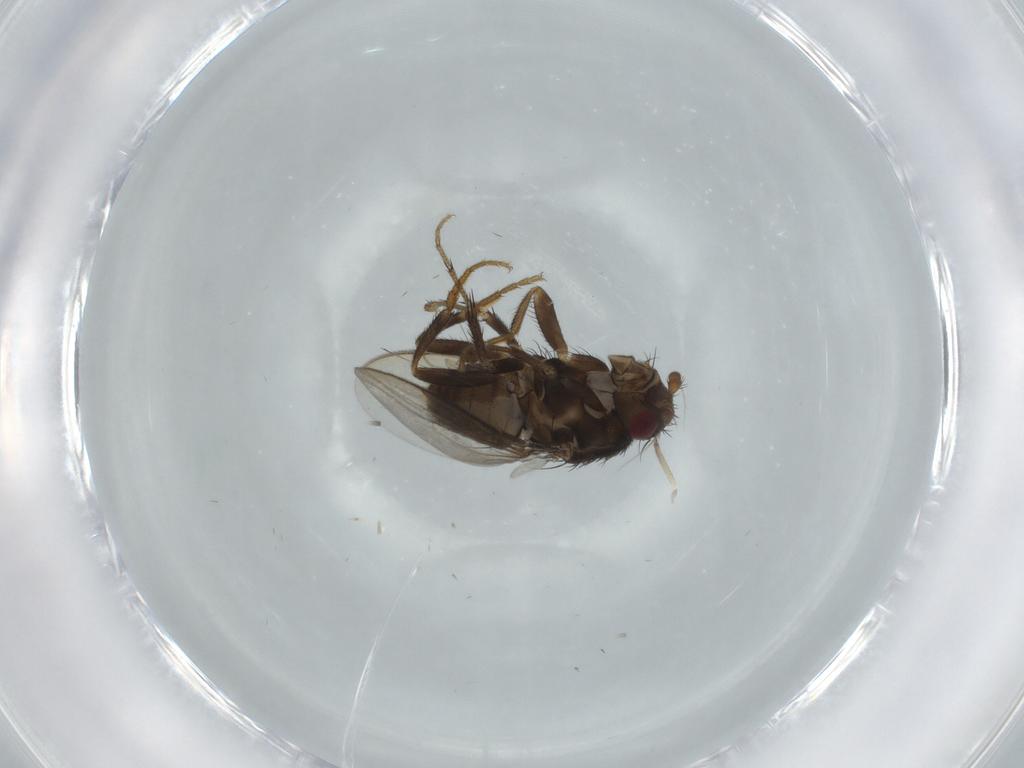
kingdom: Animalia
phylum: Arthropoda
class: Insecta
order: Diptera
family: Sphaeroceridae
